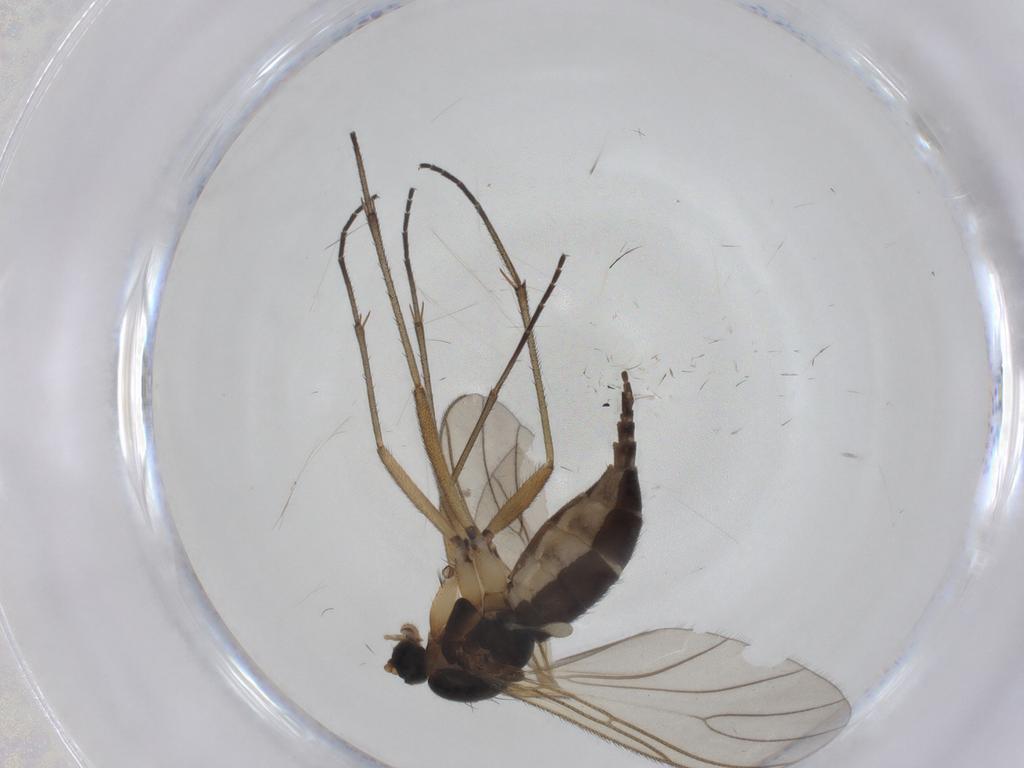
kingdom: Animalia
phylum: Arthropoda
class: Insecta
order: Diptera
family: Sciaridae
